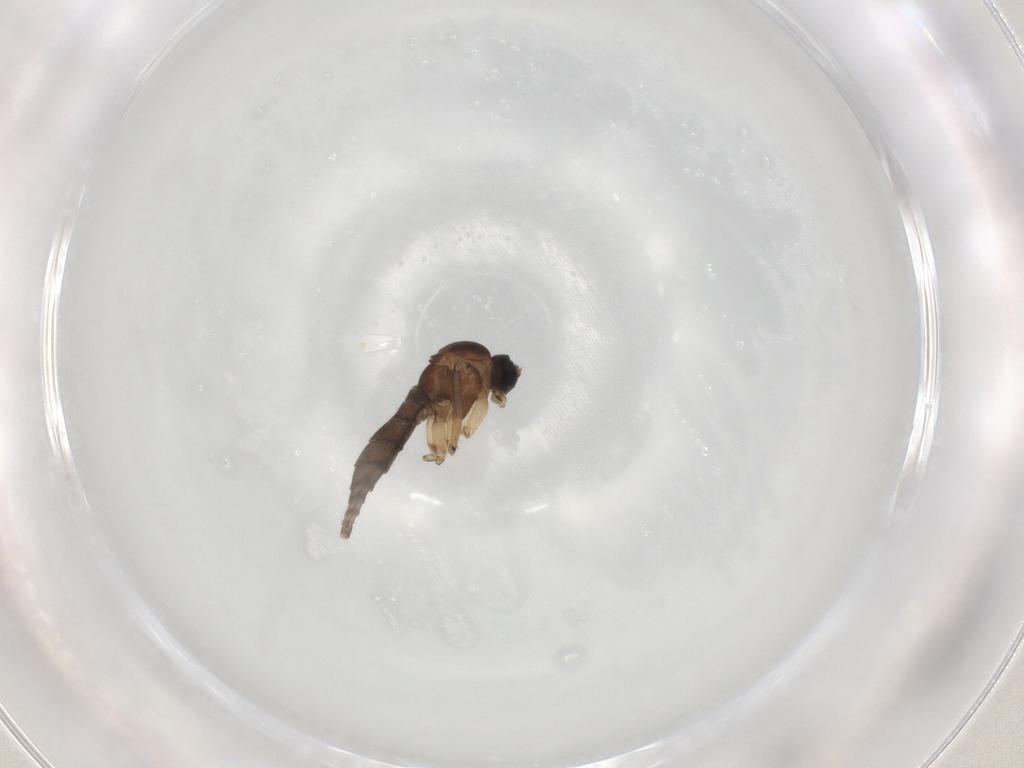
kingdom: Animalia
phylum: Arthropoda
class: Insecta
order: Diptera
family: Sciaridae
